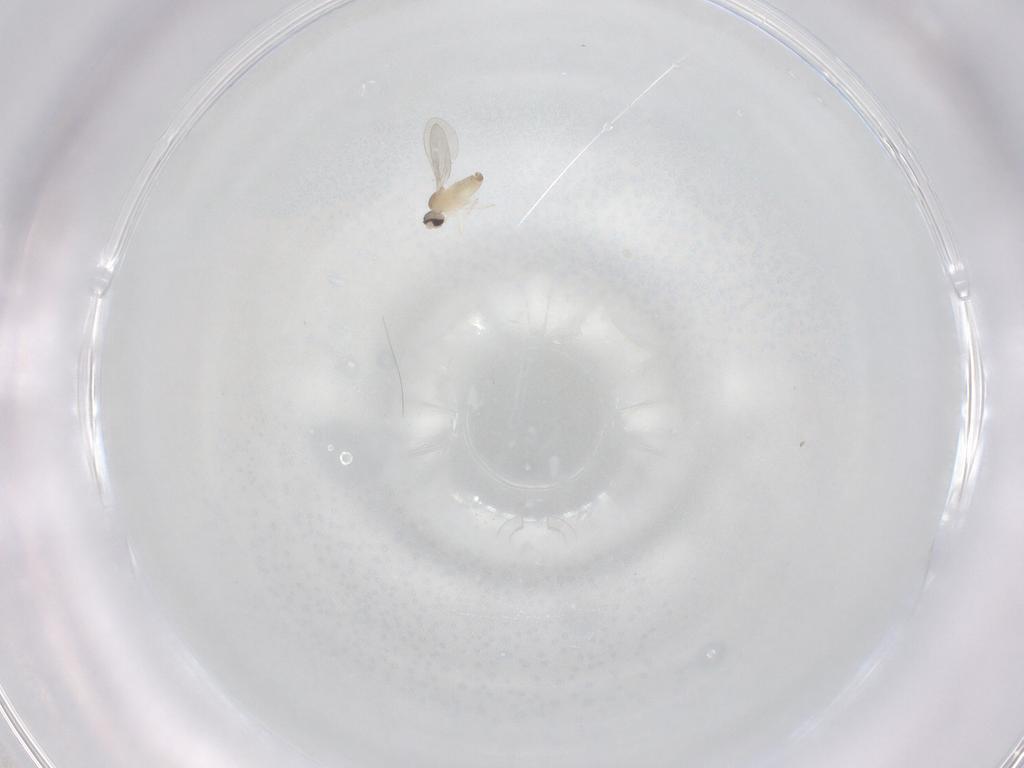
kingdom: Animalia
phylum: Arthropoda
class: Insecta
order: Diptera
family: Cecidomyiidae
